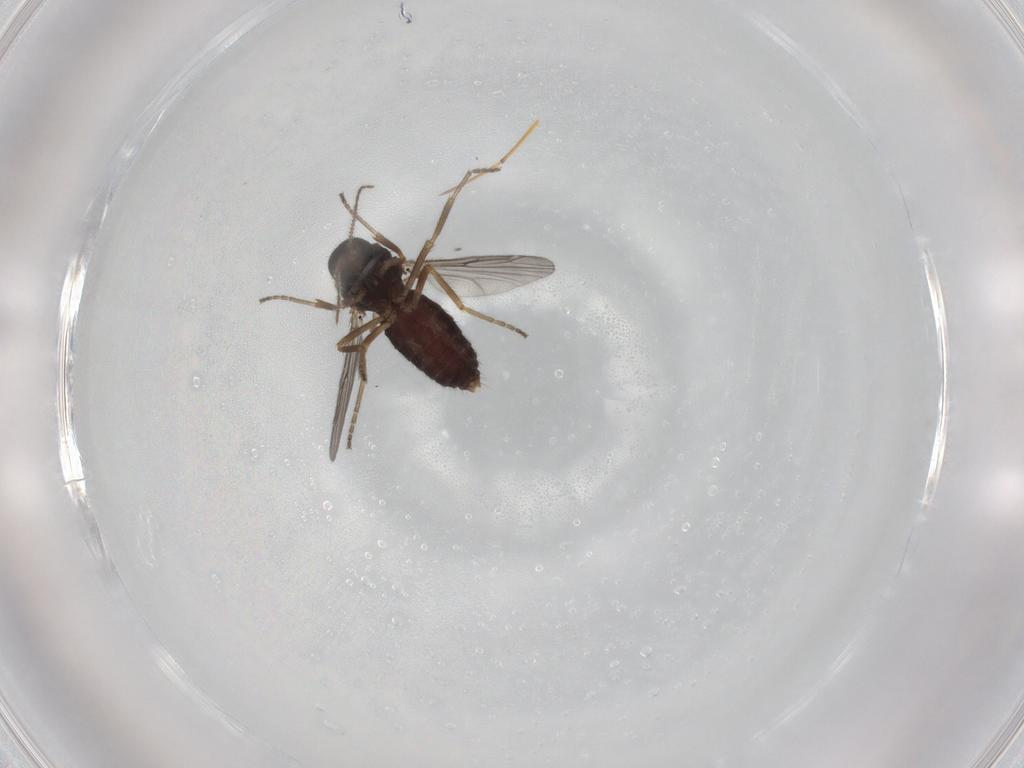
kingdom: Animalia
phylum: Arthropoda
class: Insecta
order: Diptera
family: Ceratopogonidae
